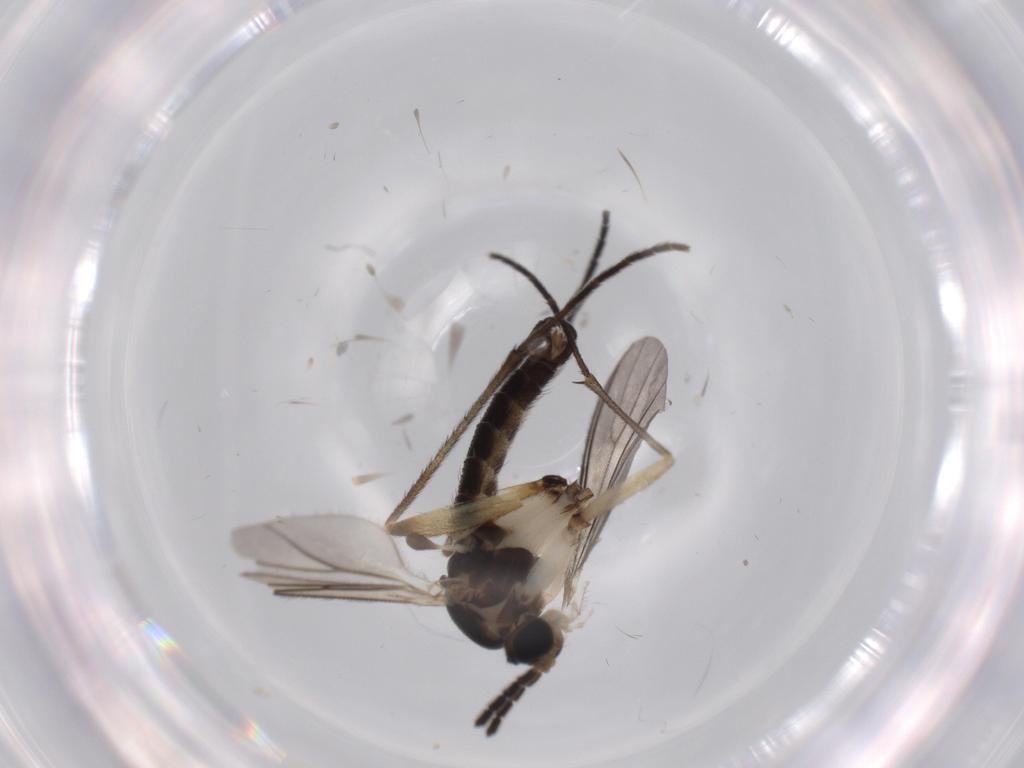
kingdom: Animalia
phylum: Arthropoda
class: Insecta
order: Diptera
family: Sciaridae
